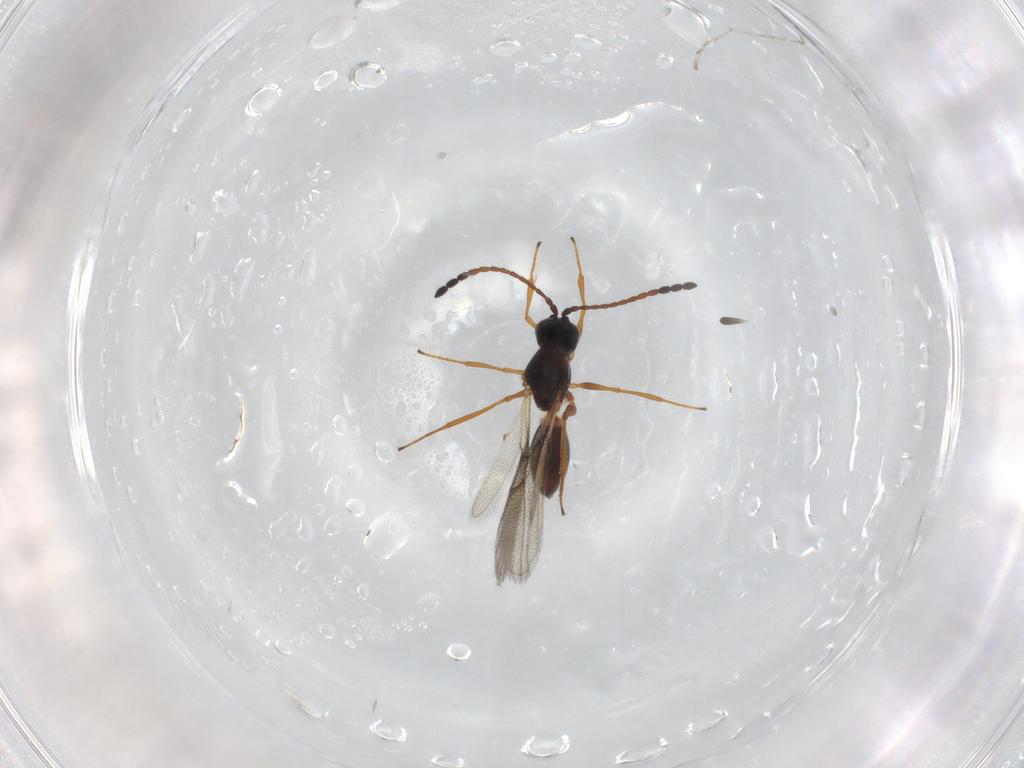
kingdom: Animalia
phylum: Arthropoda
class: Insecta
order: Hymenoptera
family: Figitidae
